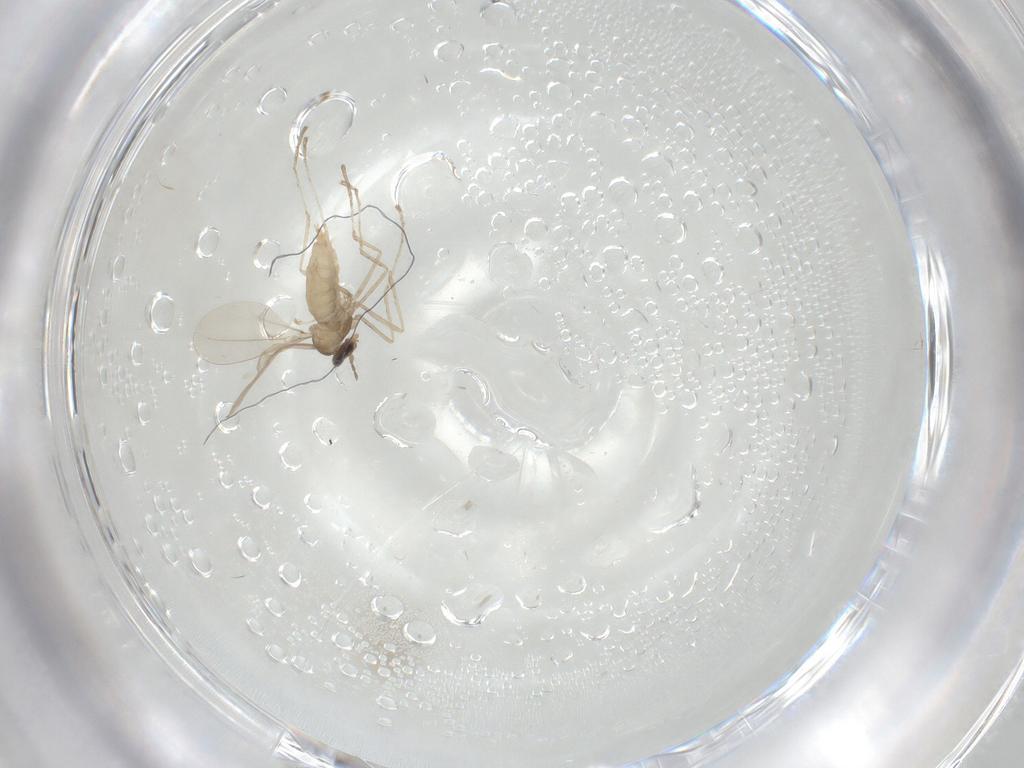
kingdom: Animalia
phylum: Arthropoda
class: Insecta
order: Diptera
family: Cecidomyiidae
